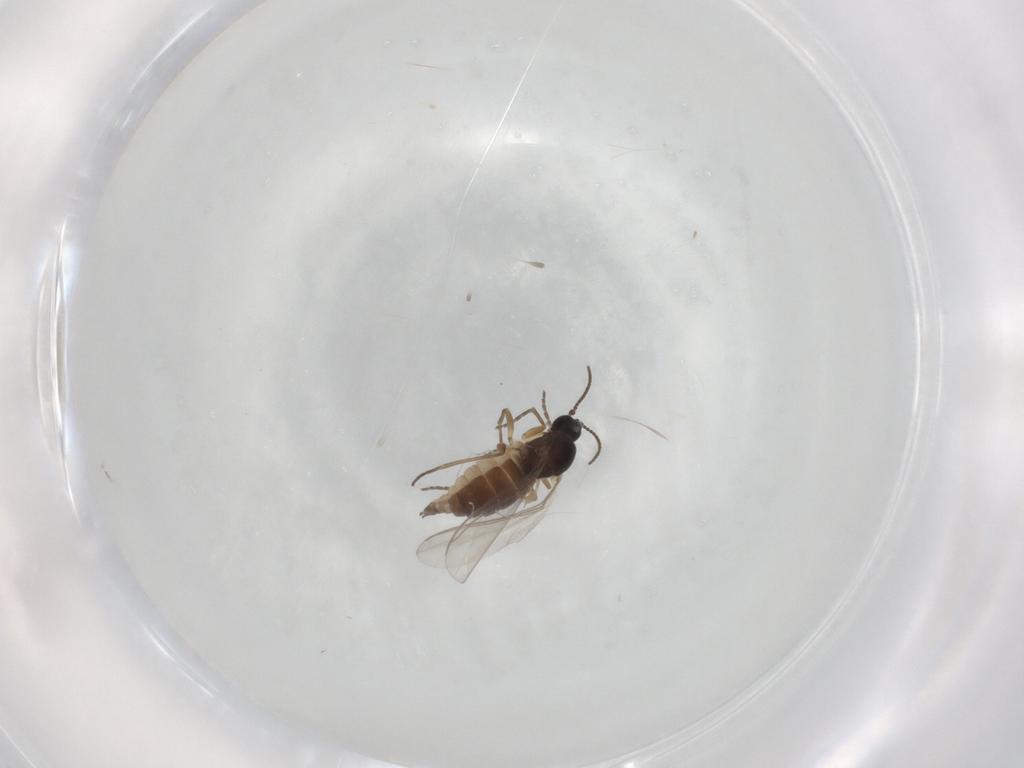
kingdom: Animalia
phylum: Arthropoda
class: Insecta
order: Diptera
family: Sciaridae
